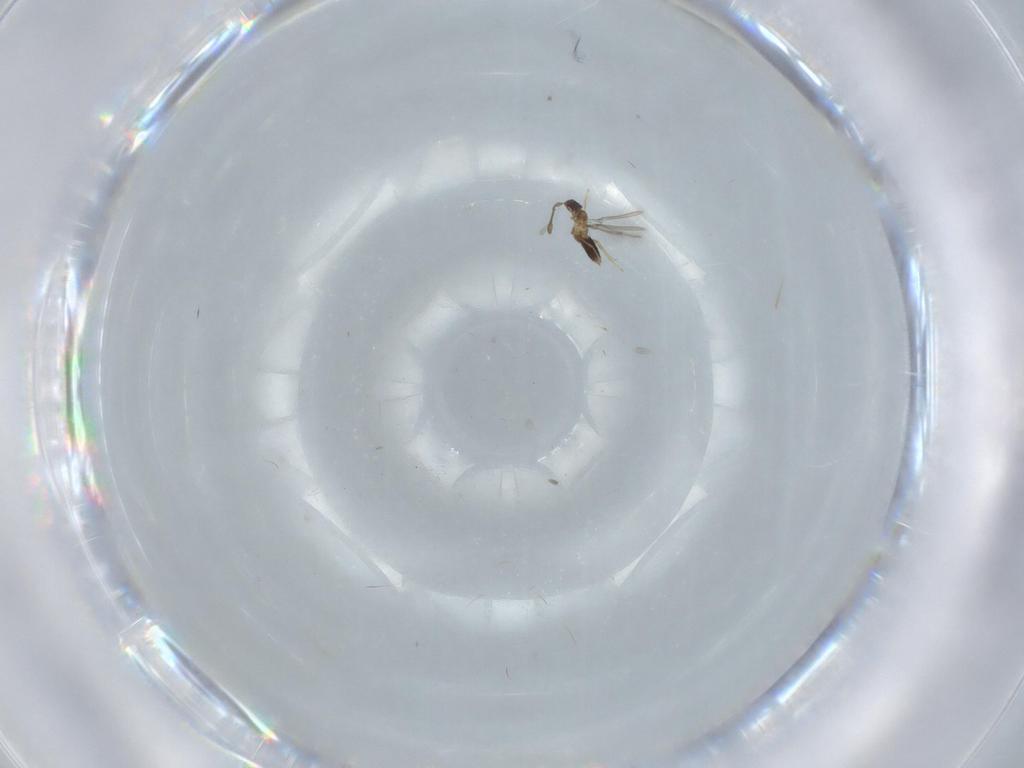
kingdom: Animalia
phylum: Arthropoda
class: Insecta
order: Hymenoptera
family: Mymaridae
